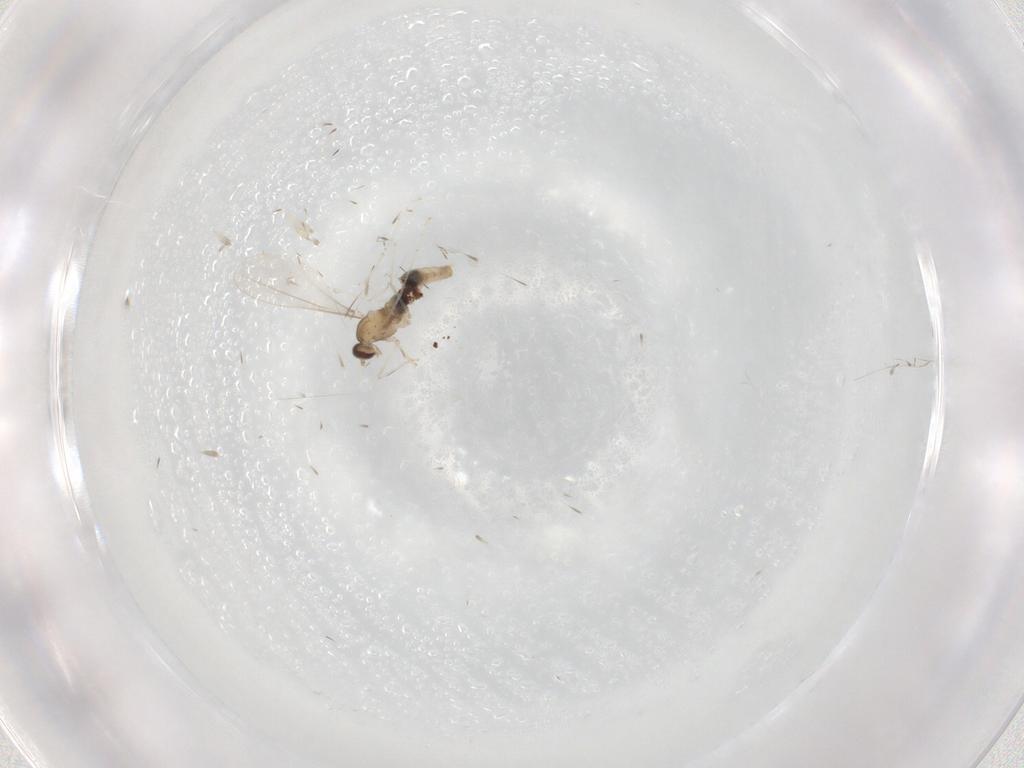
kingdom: Animalia
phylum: Arthropoda
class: Insecta
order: Diptera
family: Cecidomyiidae
